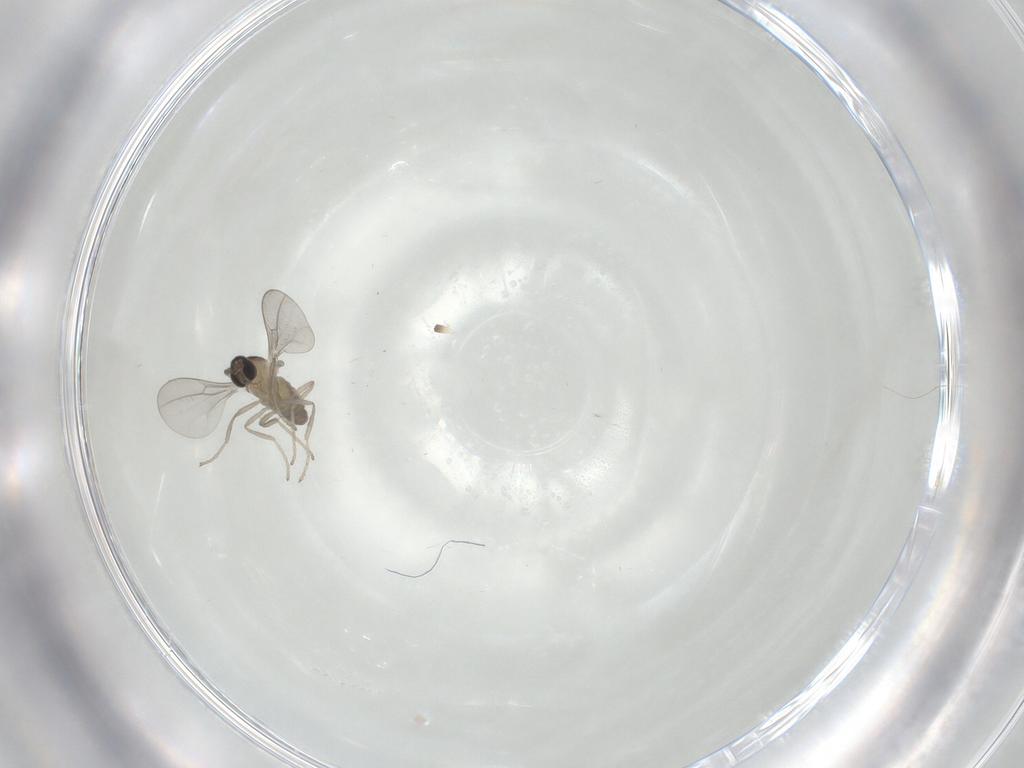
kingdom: Animalia
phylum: Arthropoda
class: Insecta
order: Diptera
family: Cecidomyiidae
